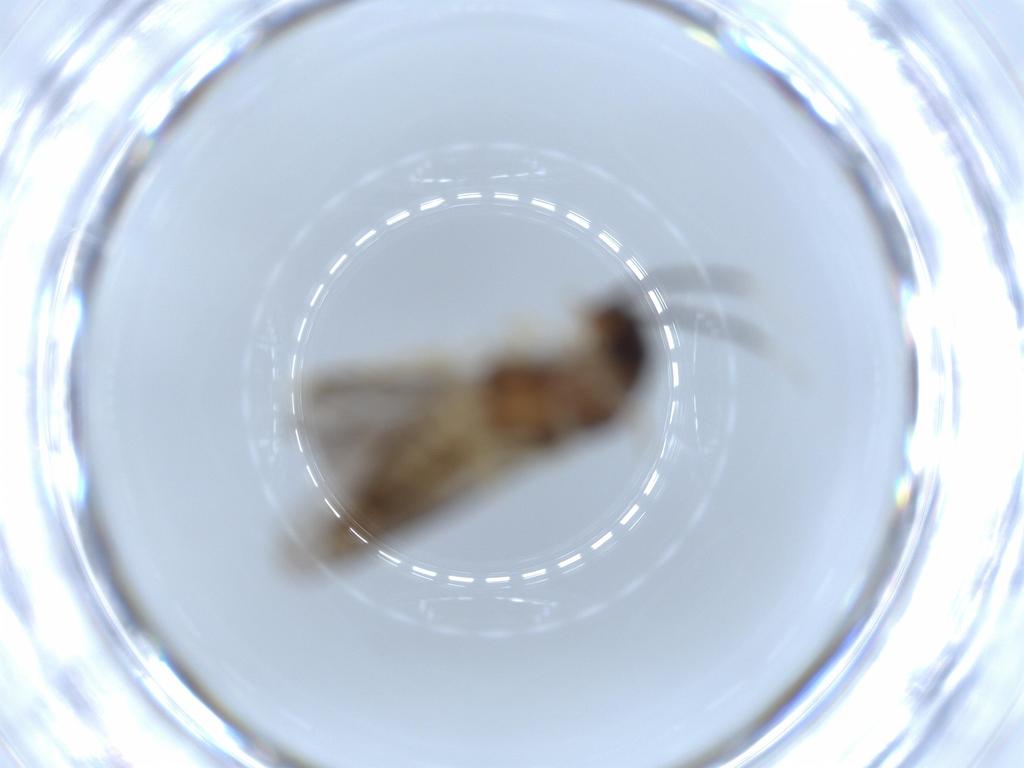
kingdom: Animalia
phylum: Arthropoda
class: Insecta
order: Coleoptera
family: Cantharidae
